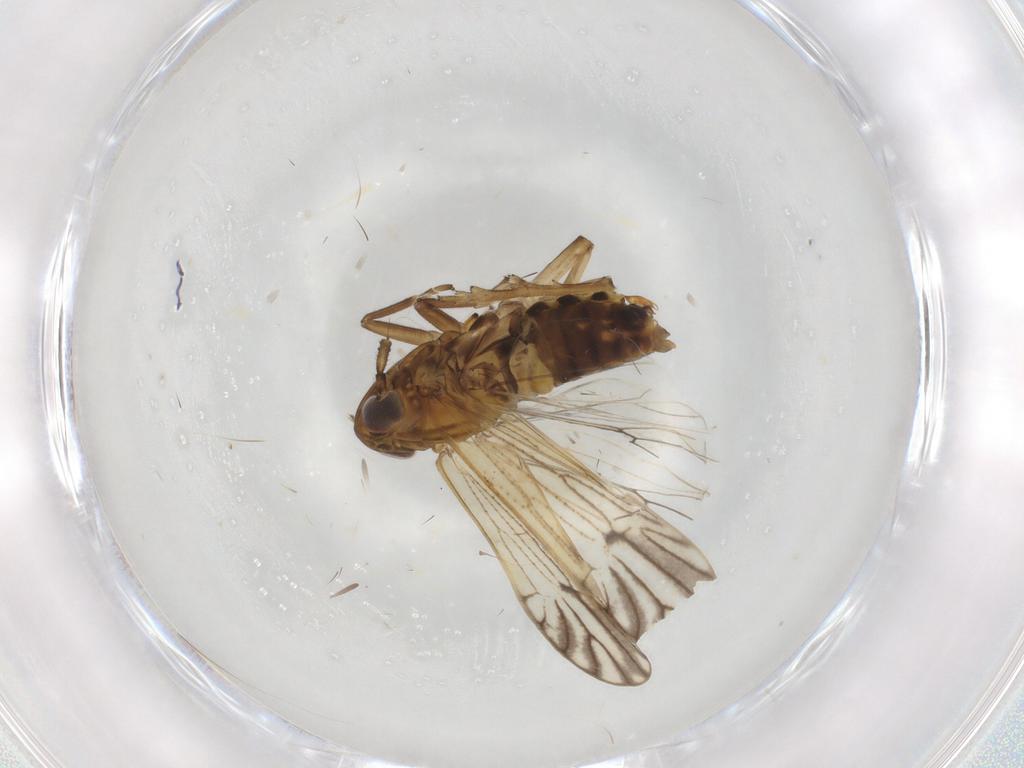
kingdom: Animalia
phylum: Arthropoda
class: Insecta
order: Hemiptera
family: Delphacidae
